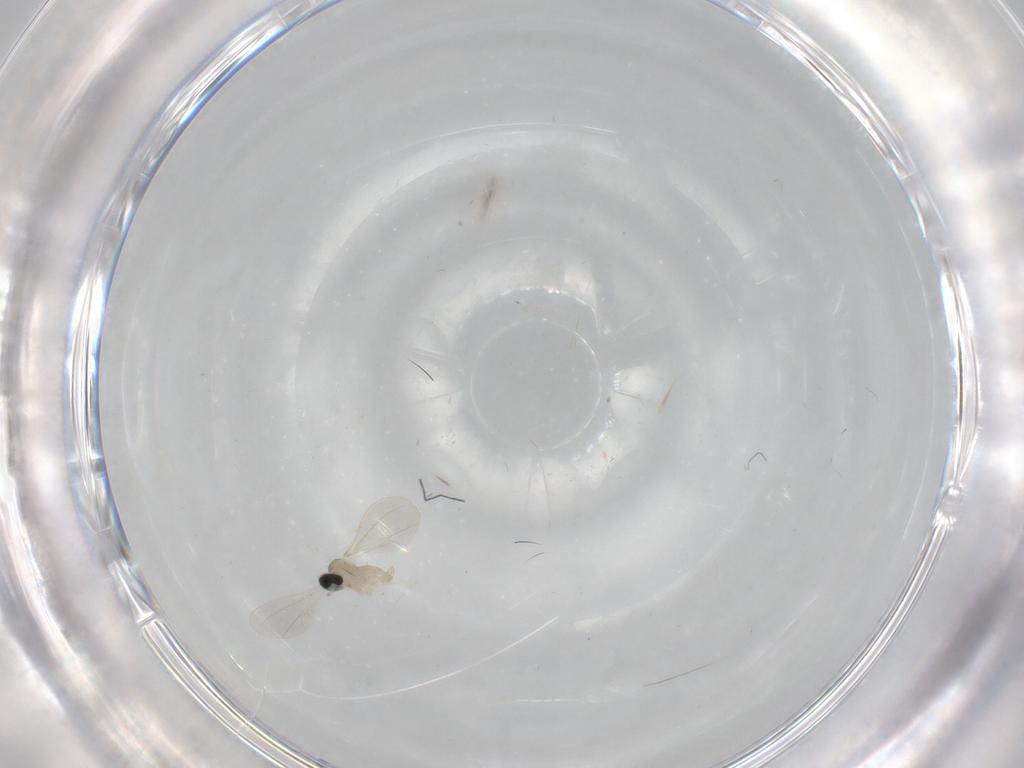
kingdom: Animalia
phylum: Arthropoda
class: Insecta
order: Diptera
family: Cecidomyiidae
